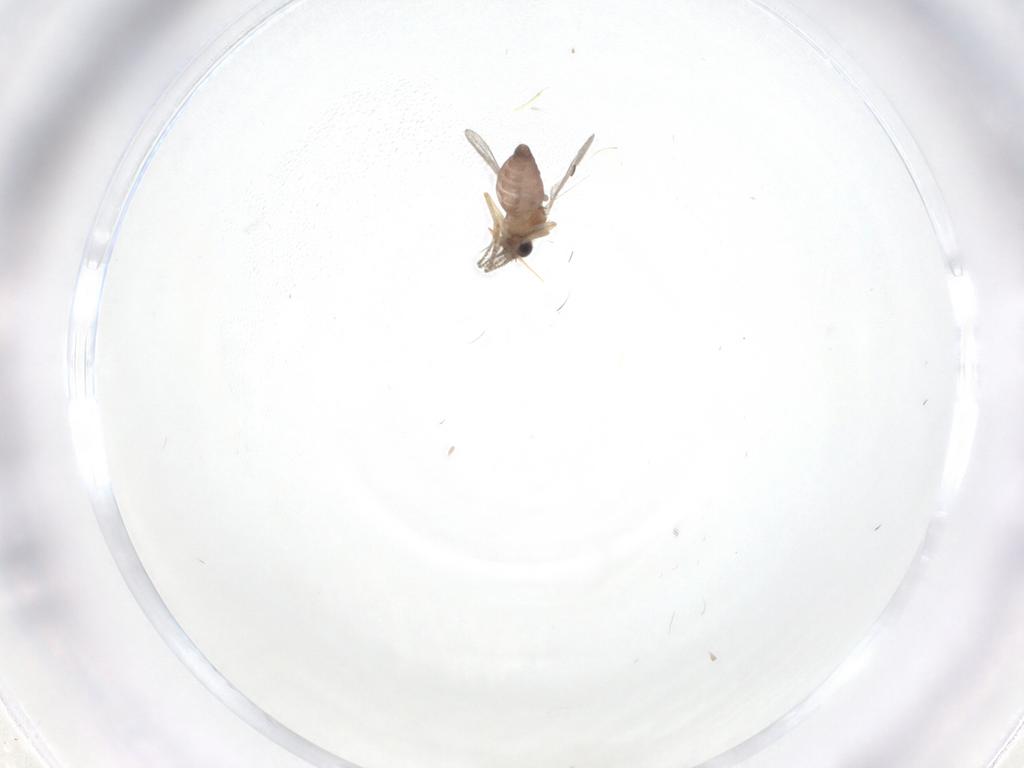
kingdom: Animalia
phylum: Arthropoda
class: Insecta
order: Diptera
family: Ceratopogonidae
